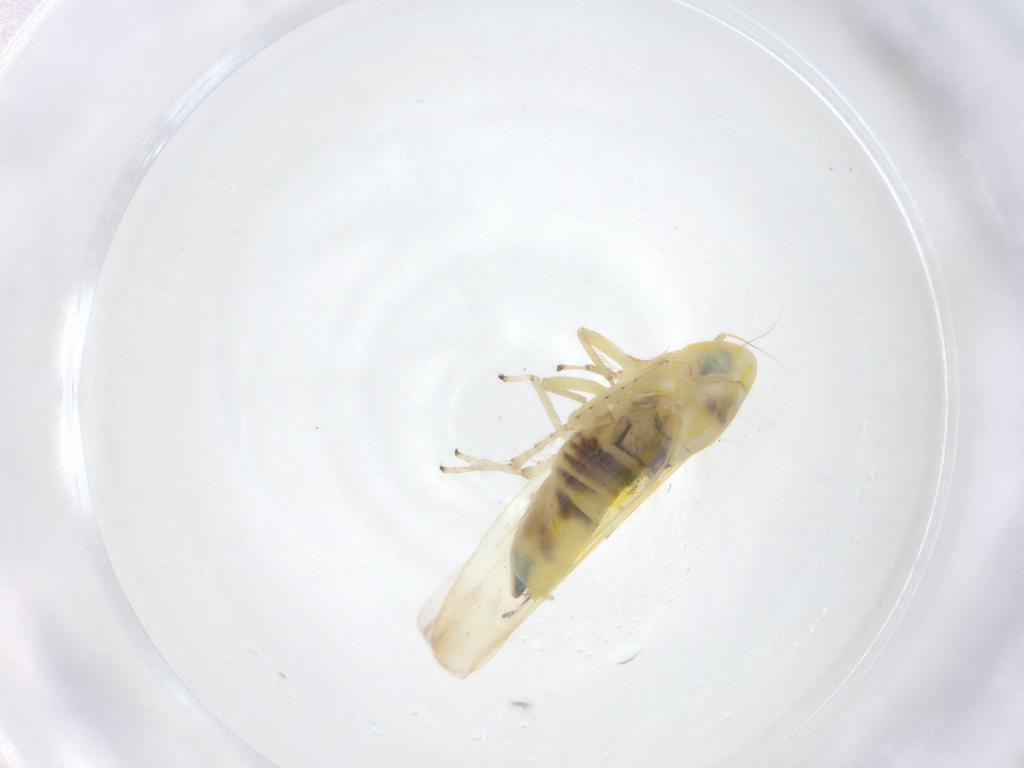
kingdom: Animalia
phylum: Arthropoda
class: Insecta
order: Hemiptera
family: Cicadellidae
